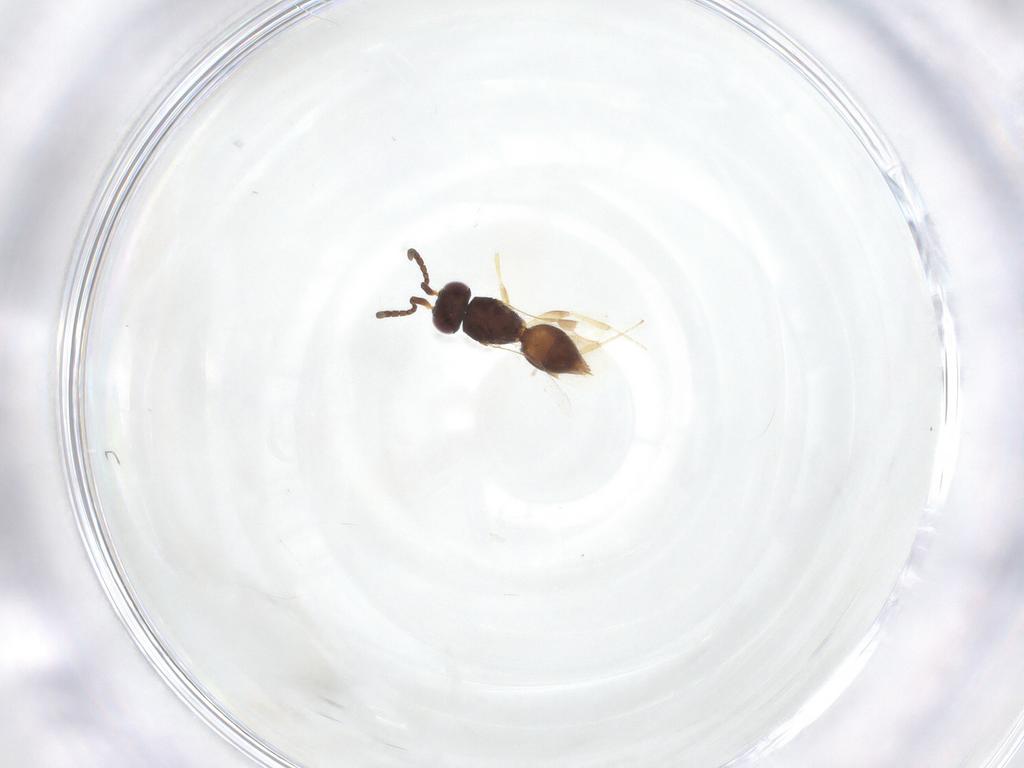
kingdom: Animalia
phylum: Arthropoda
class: Insecta
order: Hymenoptera
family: Megaspilidae
